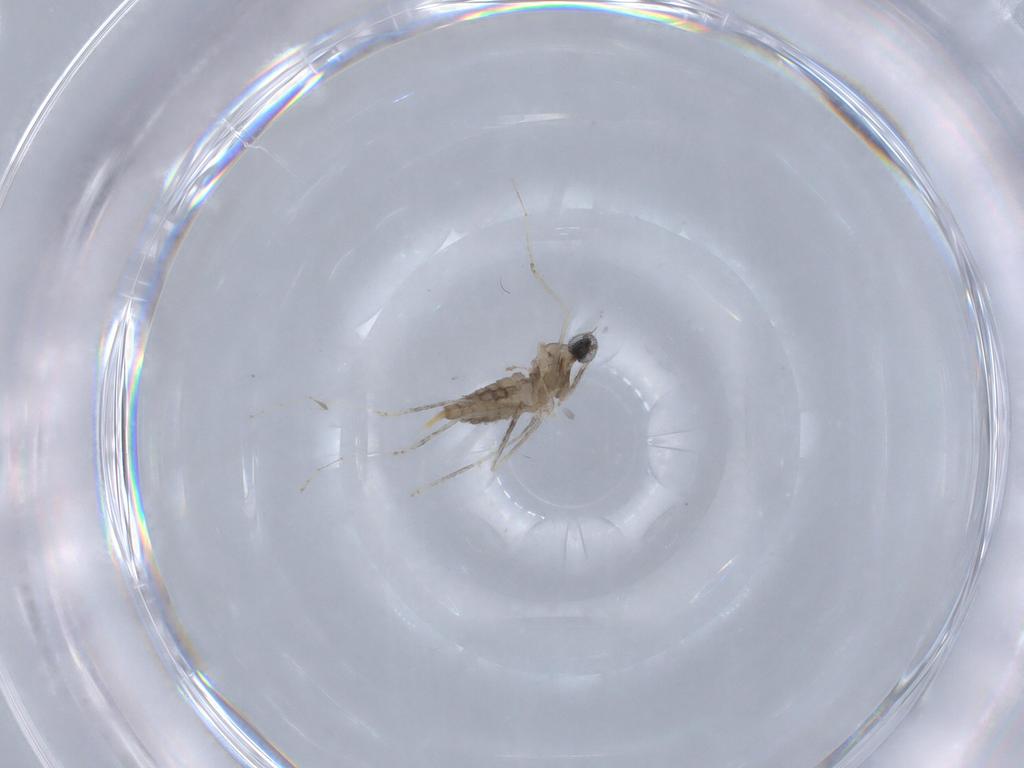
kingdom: Animalia
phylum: Arthropoda
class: Insecta
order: Diptera
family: Cecidomyiidae
